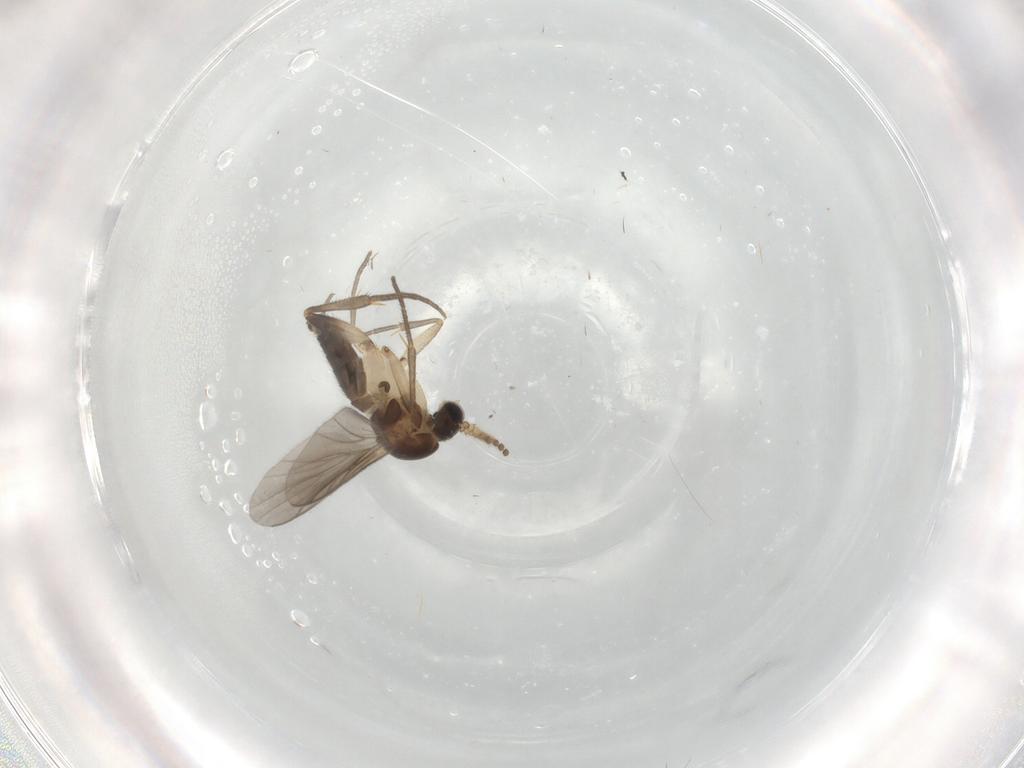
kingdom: Animalia
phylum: Arthropoda
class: Insecta
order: Diptera
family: Mycetophilidae
